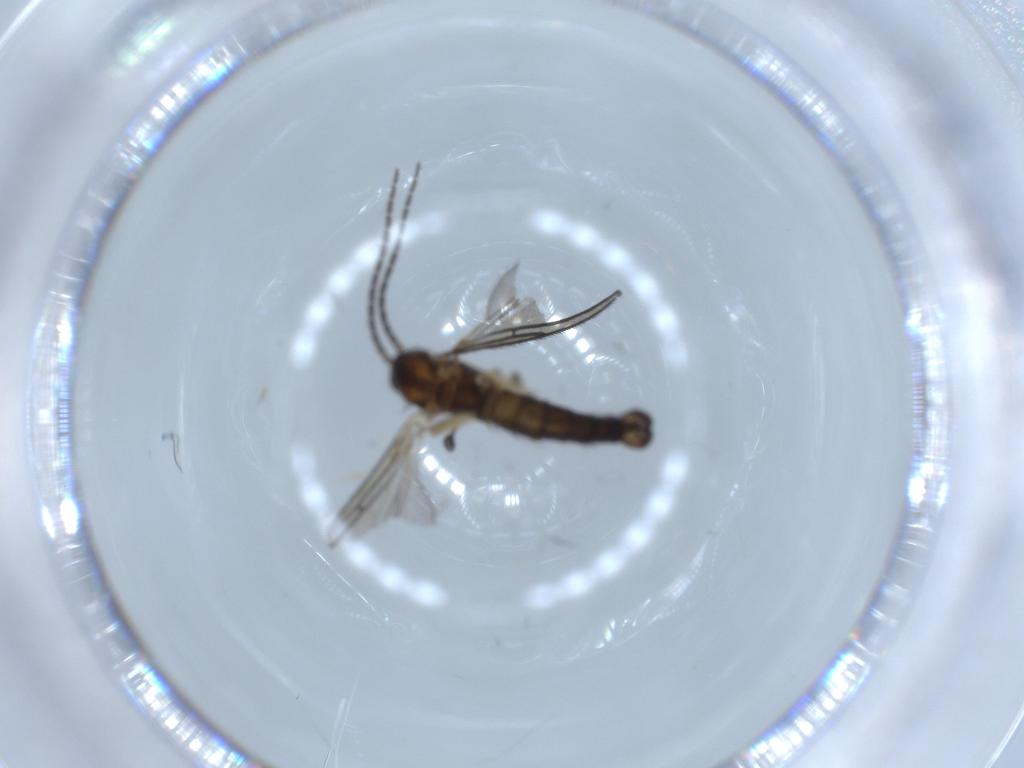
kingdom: Animalia
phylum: Arthropoda
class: Insecta
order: Diptera
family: Sciaridae
